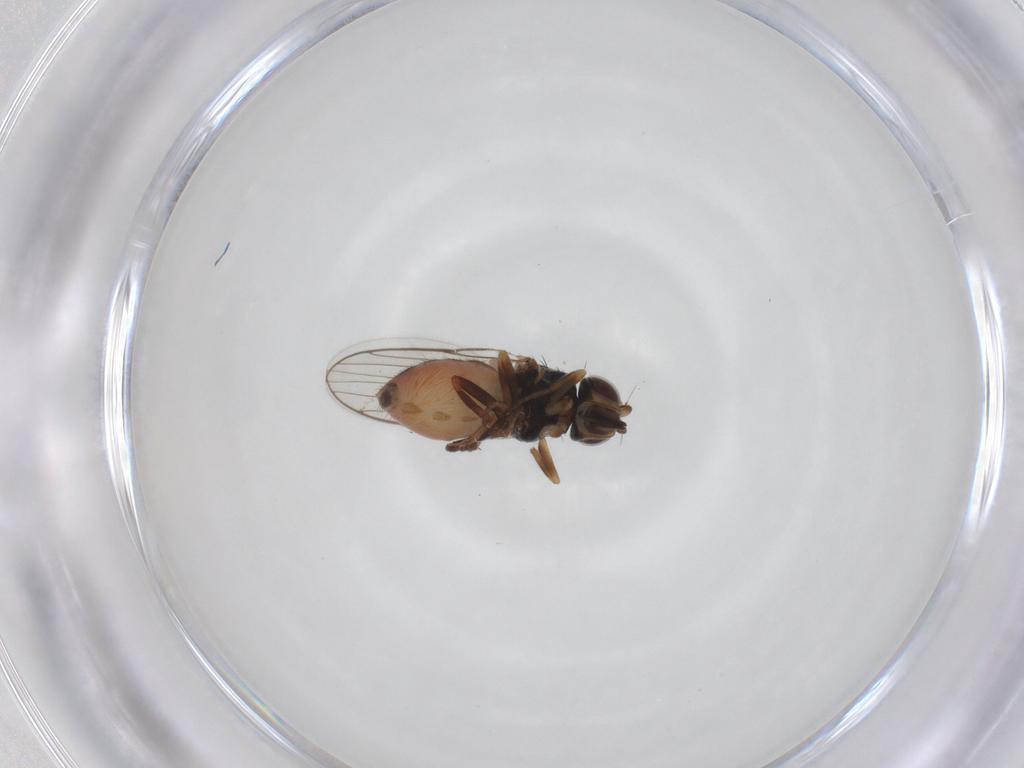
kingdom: Animalia
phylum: Arthropoda
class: Insecta
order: Diptera
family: Chloropidae
